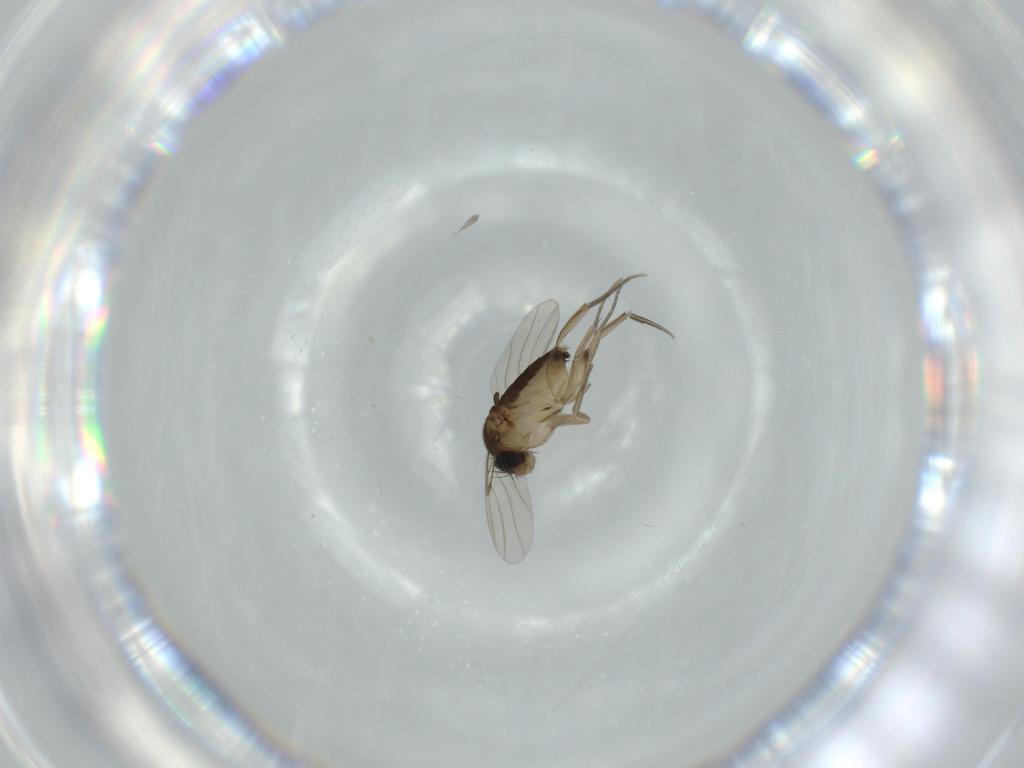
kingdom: Animalia
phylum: Arthropoda
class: Insecta
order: Diptera
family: Phoridae
